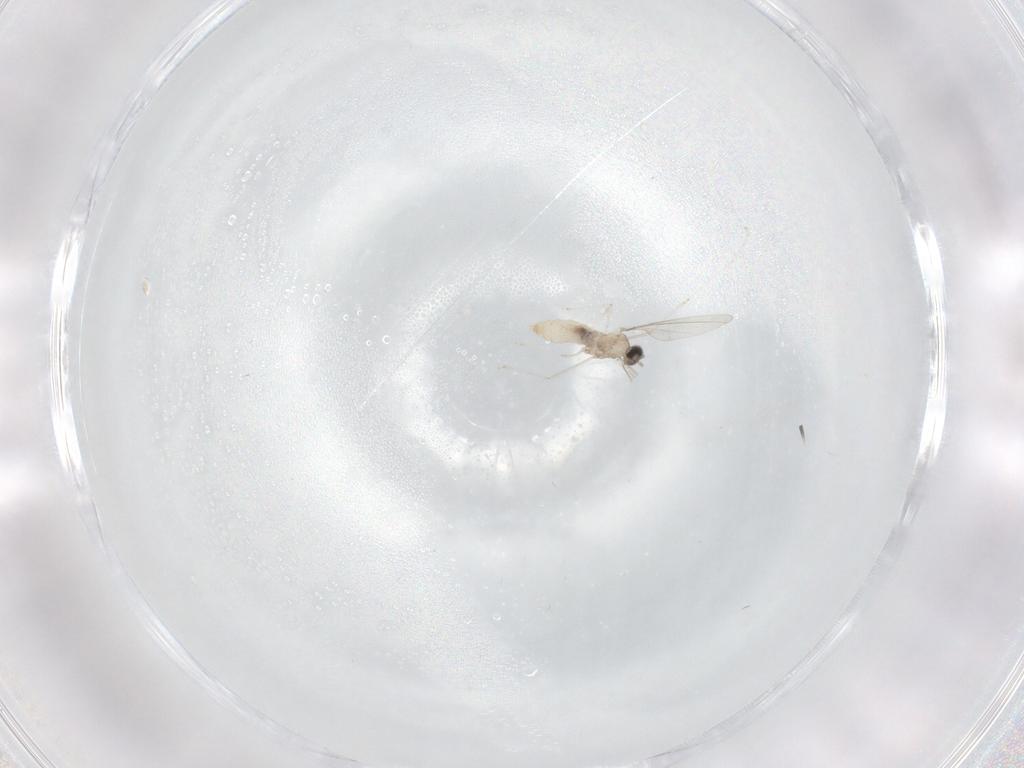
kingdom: Animalia
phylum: Arthropoda
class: Insecta
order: Diptera
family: Cecidomyiidae
